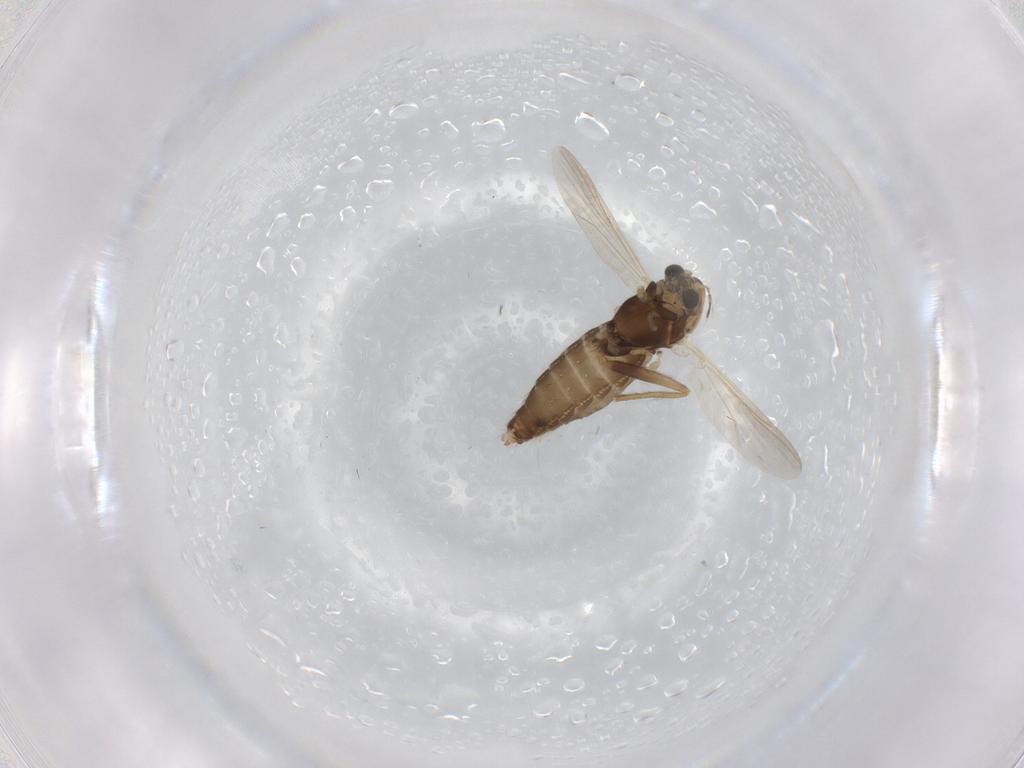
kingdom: Animalia
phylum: Arthropoda
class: Insecta
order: Diptera
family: Chironomidae
